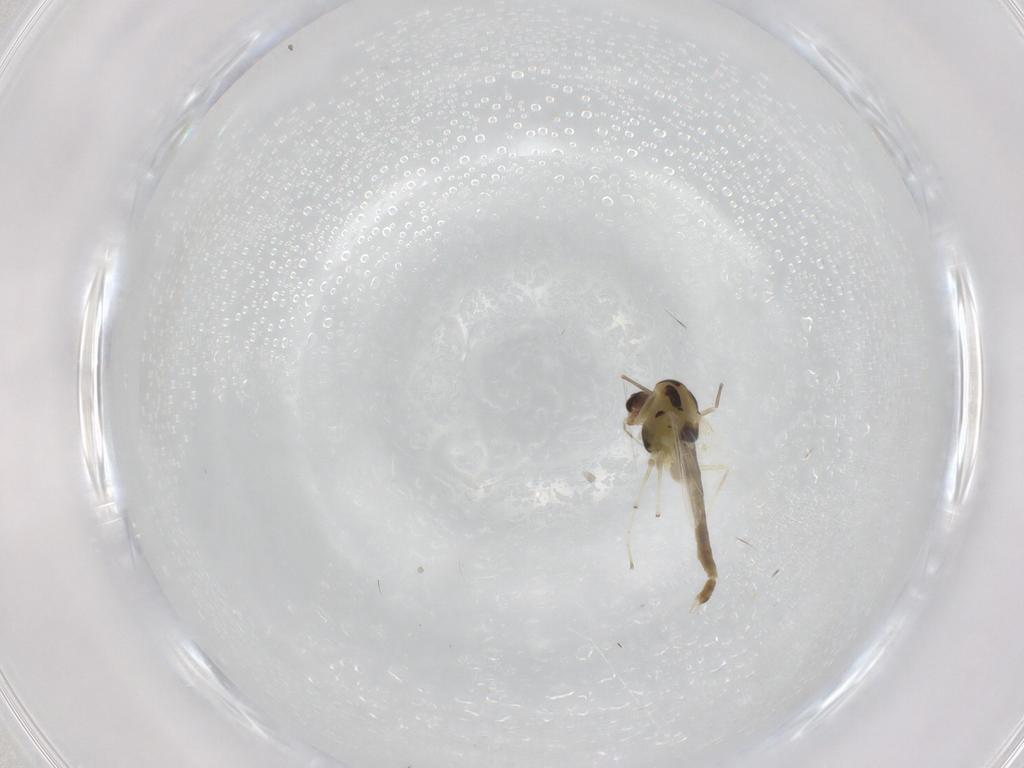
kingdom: Animalia
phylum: Arthropoda
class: Insecta
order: Diptera
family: Chironomidae
